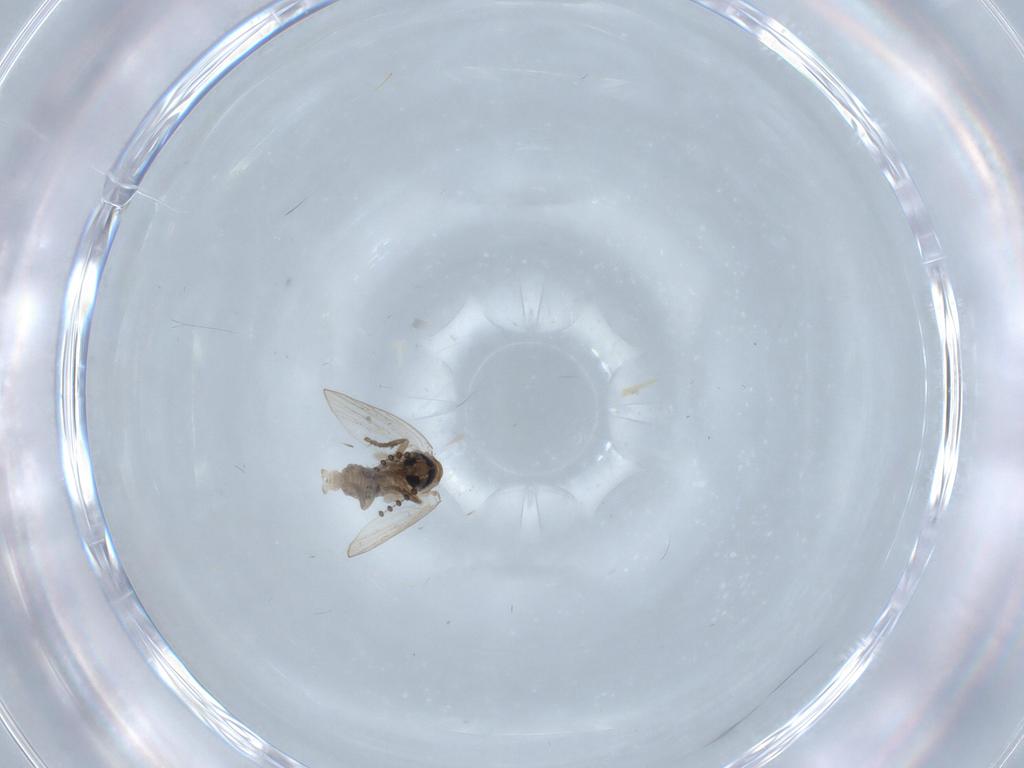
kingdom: Animalia
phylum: Arthropoda
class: Insecta
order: Diptera
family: Psychodidae
